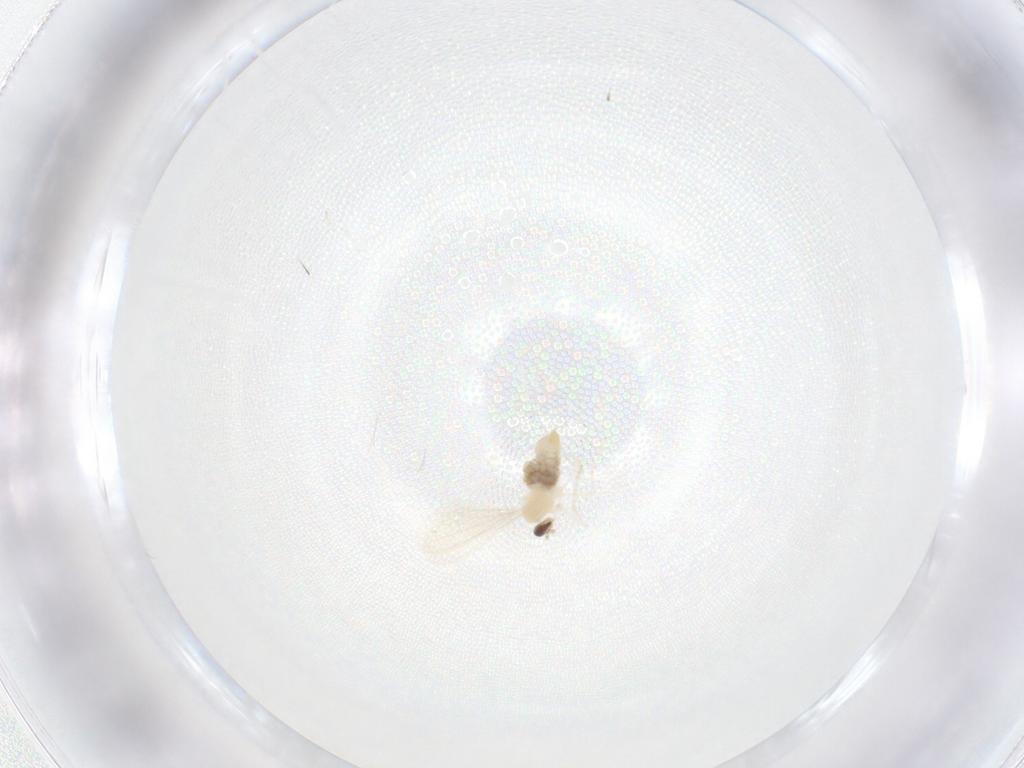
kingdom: Animalia
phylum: Arthropoda
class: Insecta
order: Diptera
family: Cecidomyiidae
